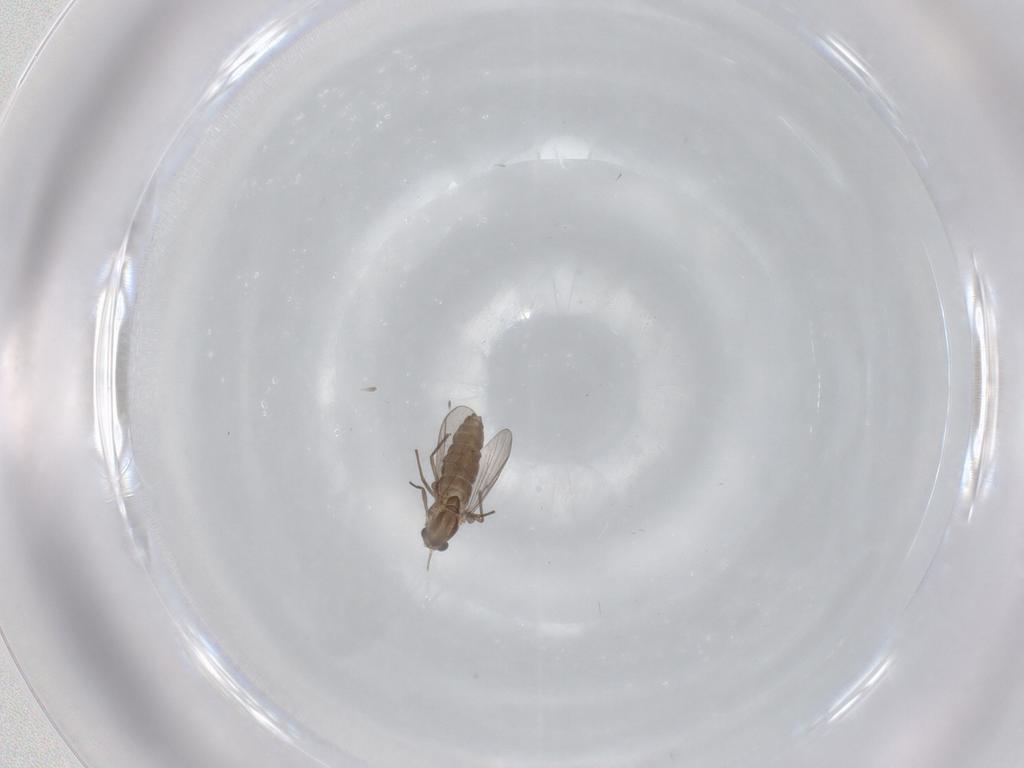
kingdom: Animalia
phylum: Arthropoda
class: Insecta
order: Diptera
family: Chironomidae
